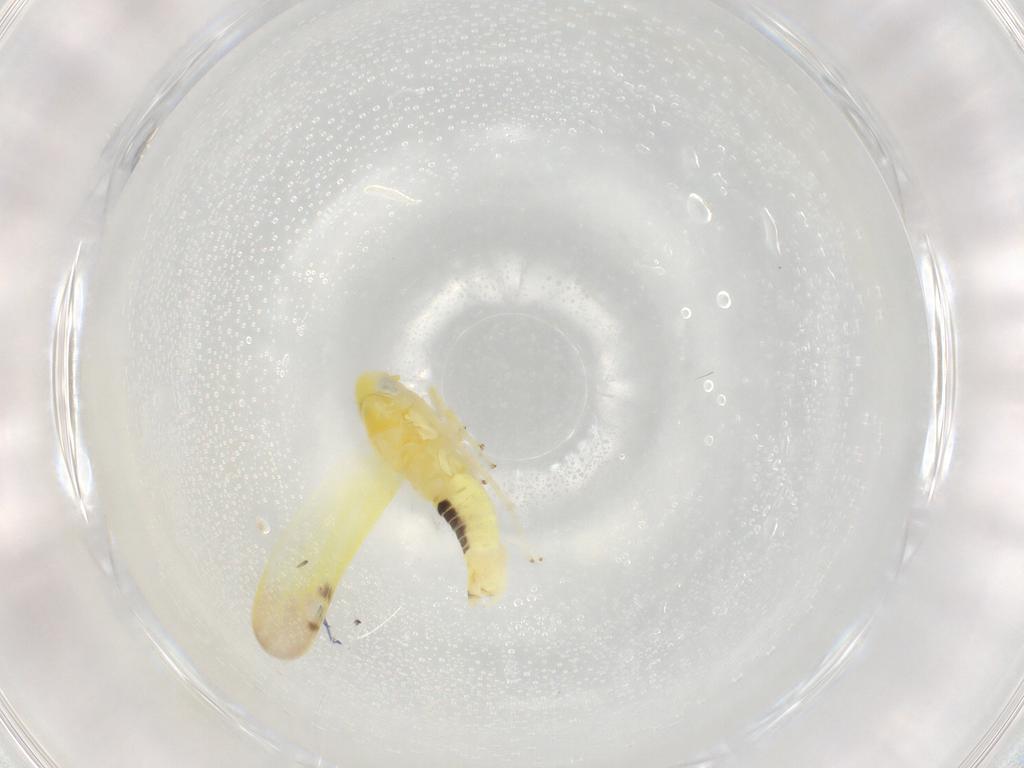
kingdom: Animalia
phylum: Arthropoda
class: Insecta
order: Hemiptera
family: Cicadellidae
